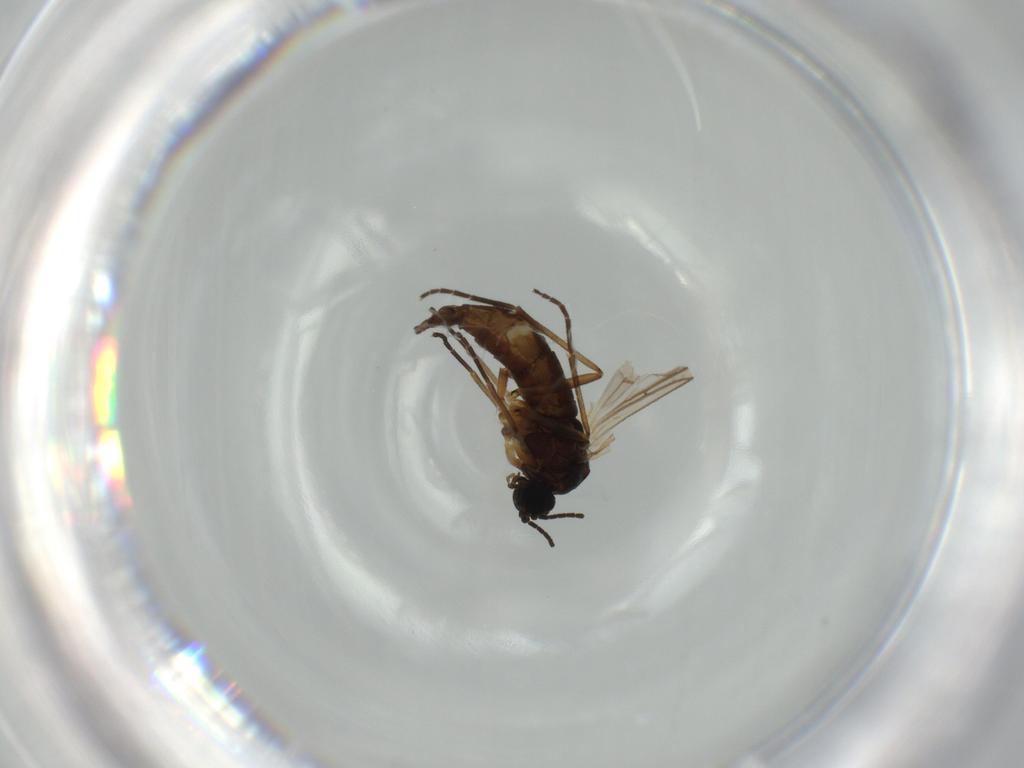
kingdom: Animalia
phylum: Arthropoda
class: Insecta
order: Diptera
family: Sciaridae
